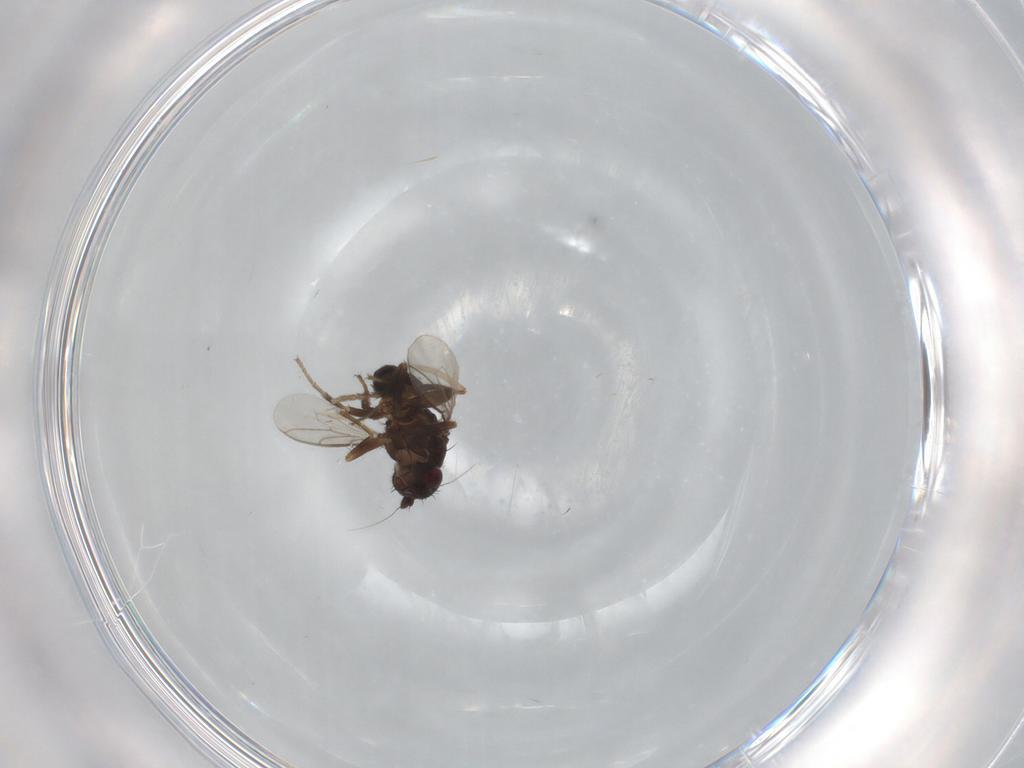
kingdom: Animalia
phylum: Arthropoda
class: Insecta
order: Diptera
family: Sphaeroceridae
